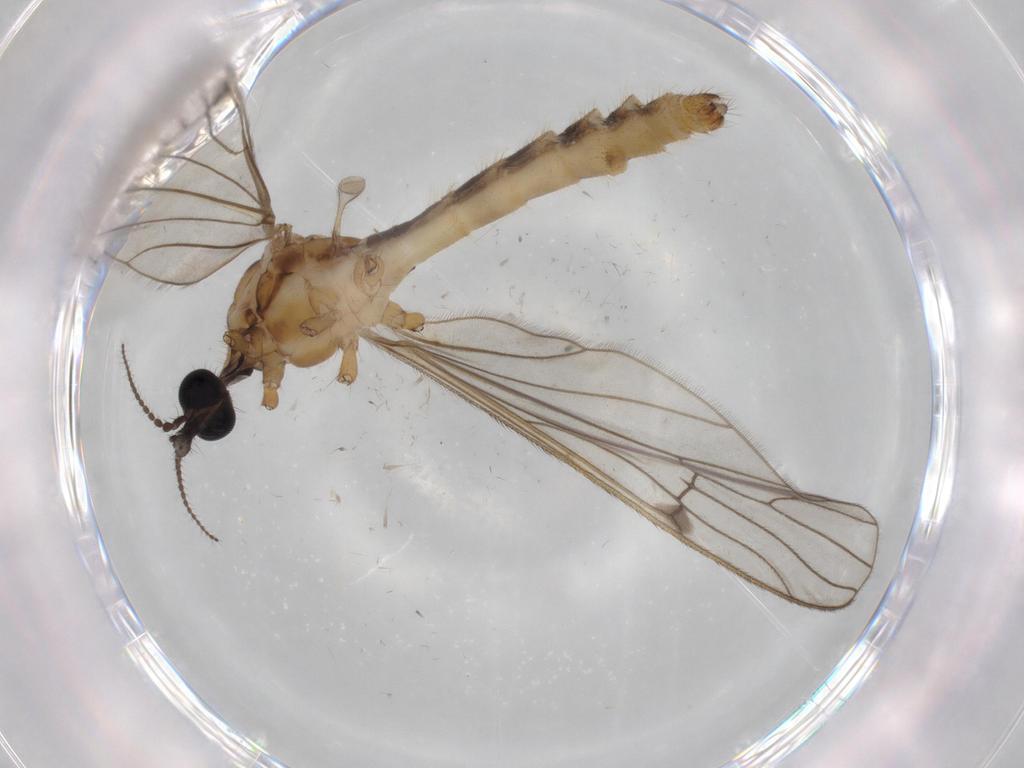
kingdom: Animalia
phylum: Arthropoda
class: Insecta
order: Diptera
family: Limoniidae
